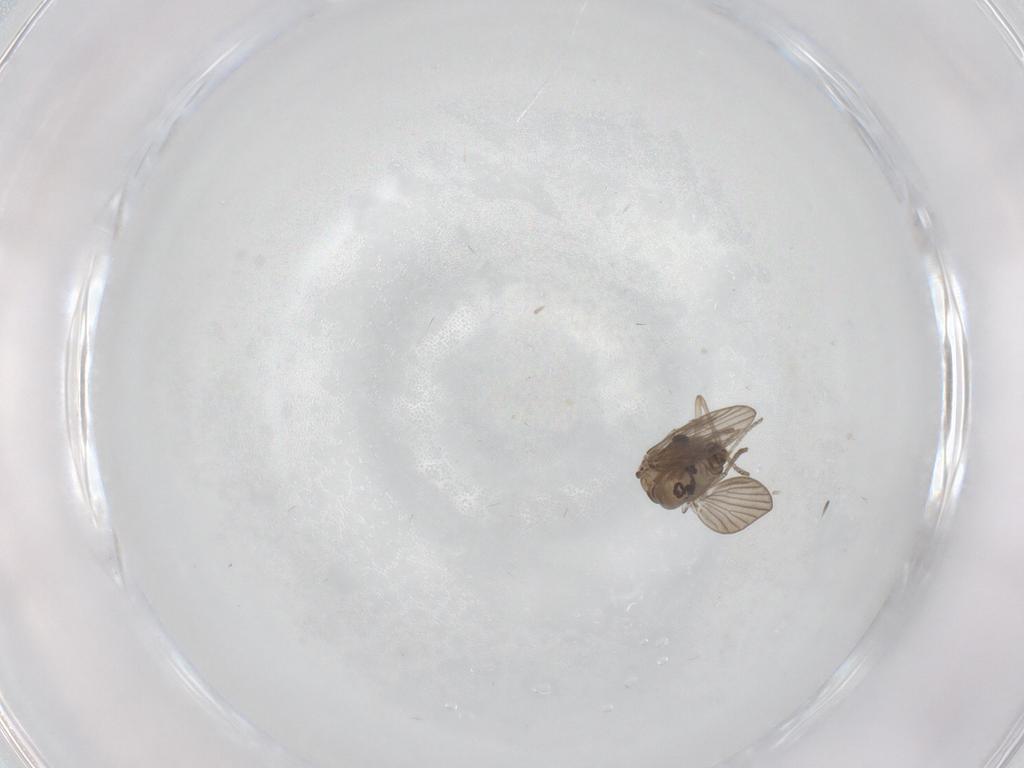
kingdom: Animalia
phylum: Arthropoda
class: Insecta
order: Diptera
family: Psychodidae
